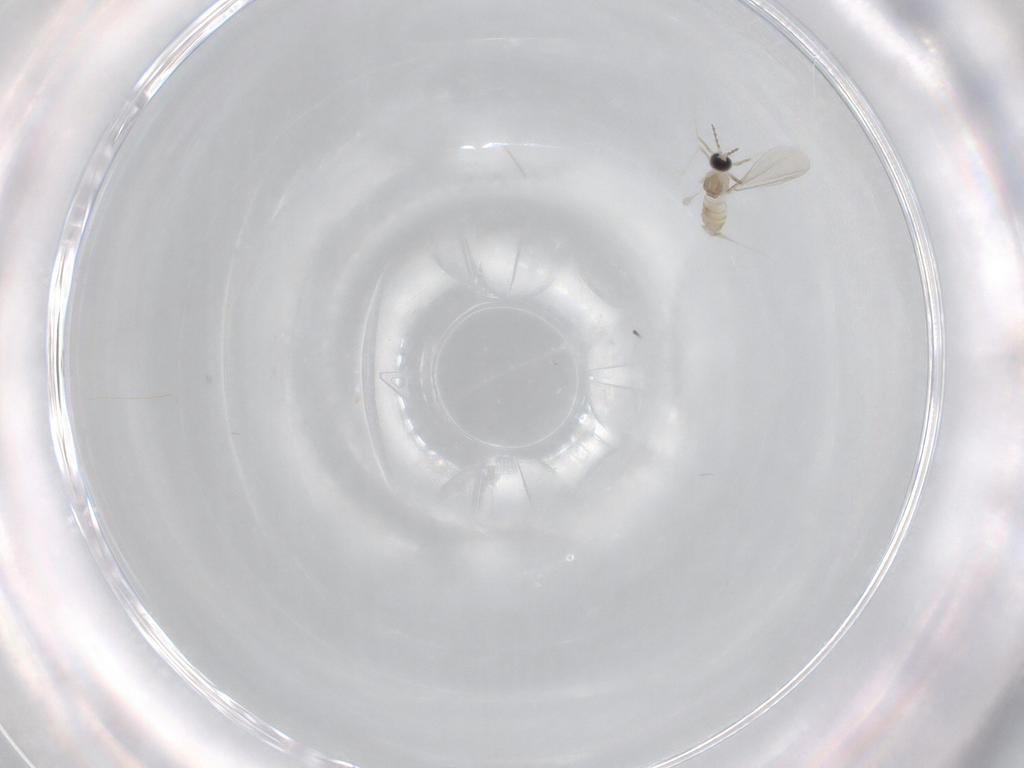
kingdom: Animalia
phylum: Arthropoda
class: Insecta
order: Diptera
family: Cecidomyiidae
